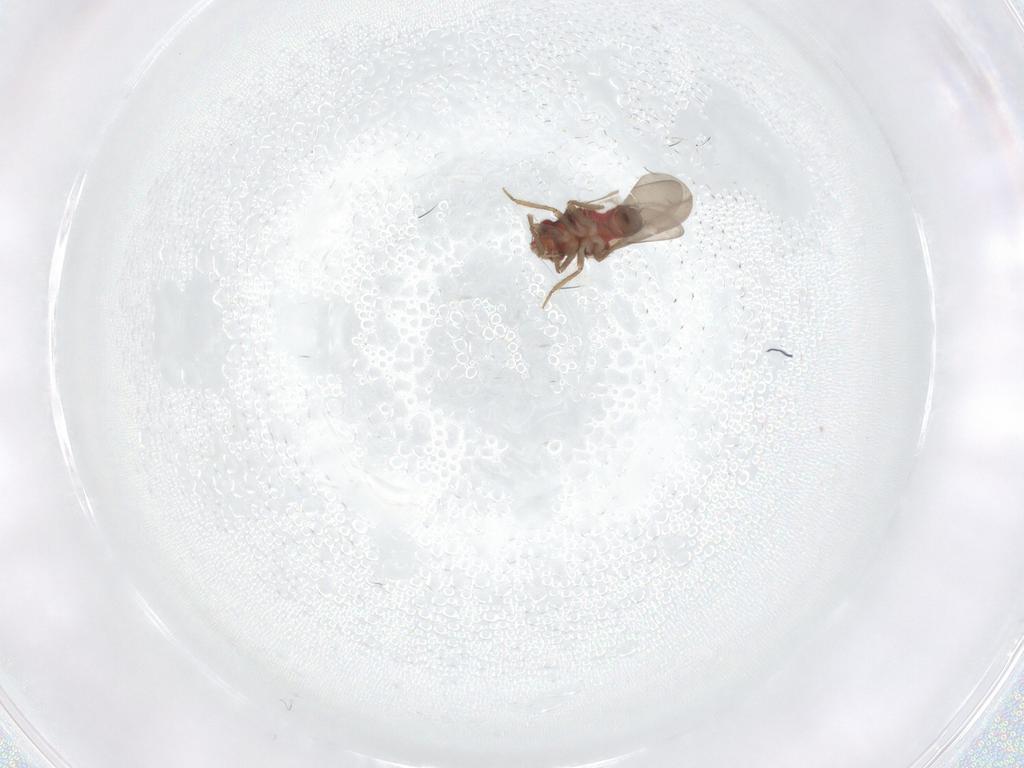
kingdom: Animalia
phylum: Arthropoda
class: Insecta
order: Hemiptera
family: Ceratocombidae
